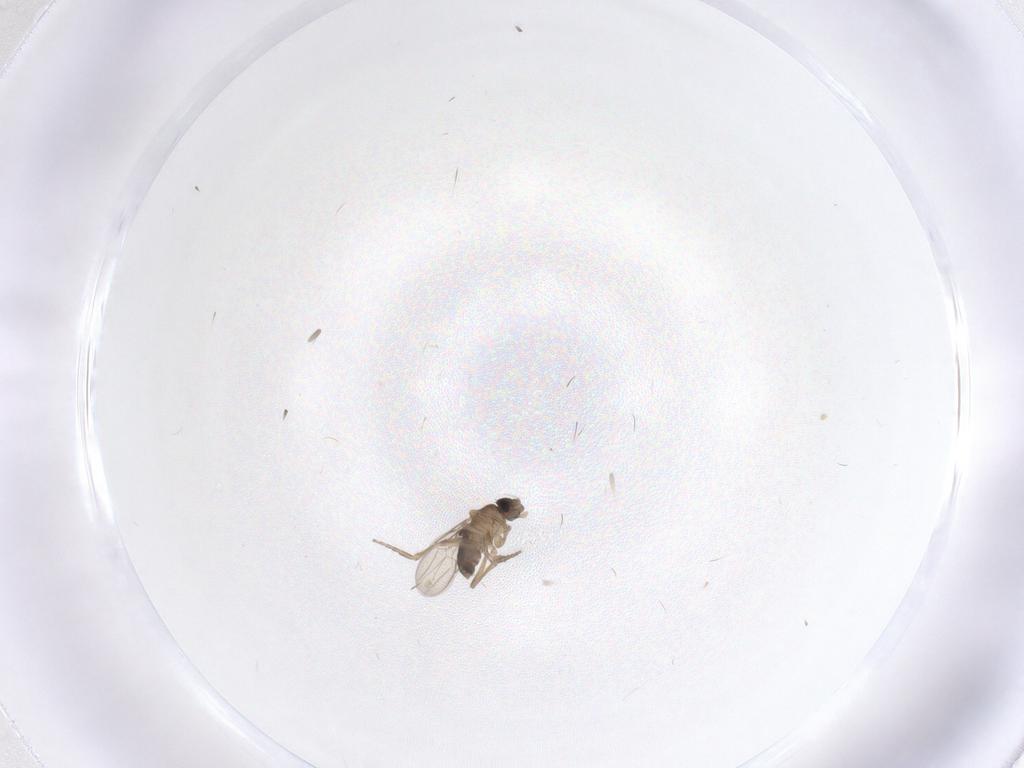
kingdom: Animalia
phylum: Arthropoda
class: Insecta
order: Diptera
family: Phoridae
